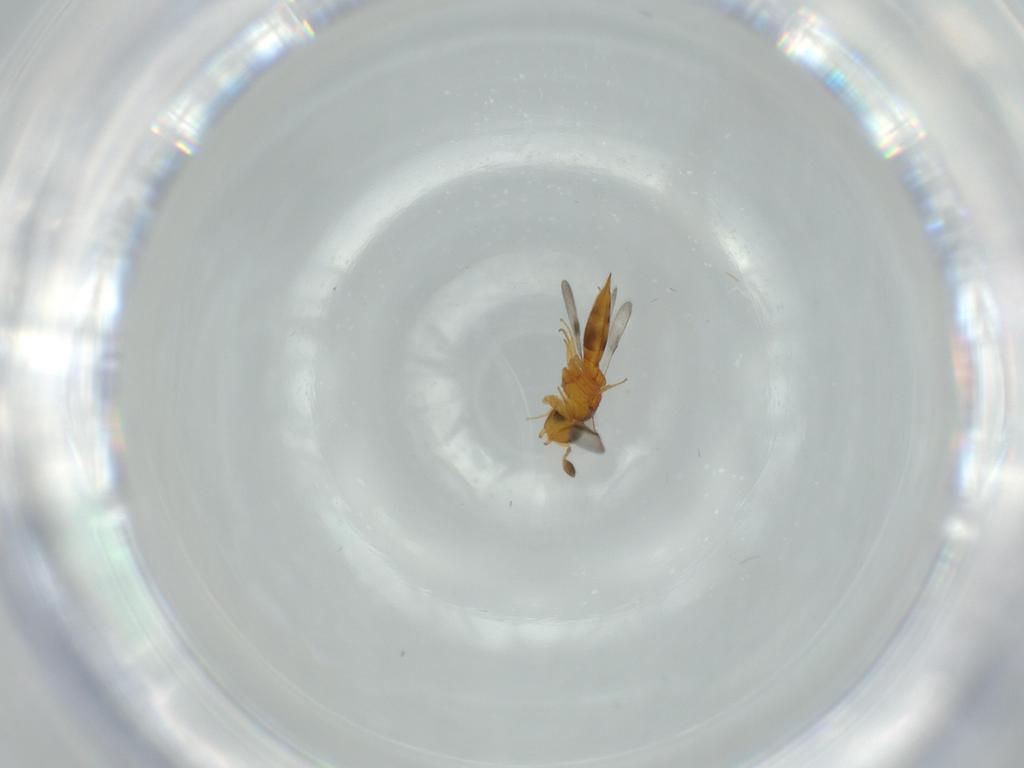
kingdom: Animalia
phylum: Arthropoda
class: Insecta
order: Hymenoptera
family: Scelionidae
